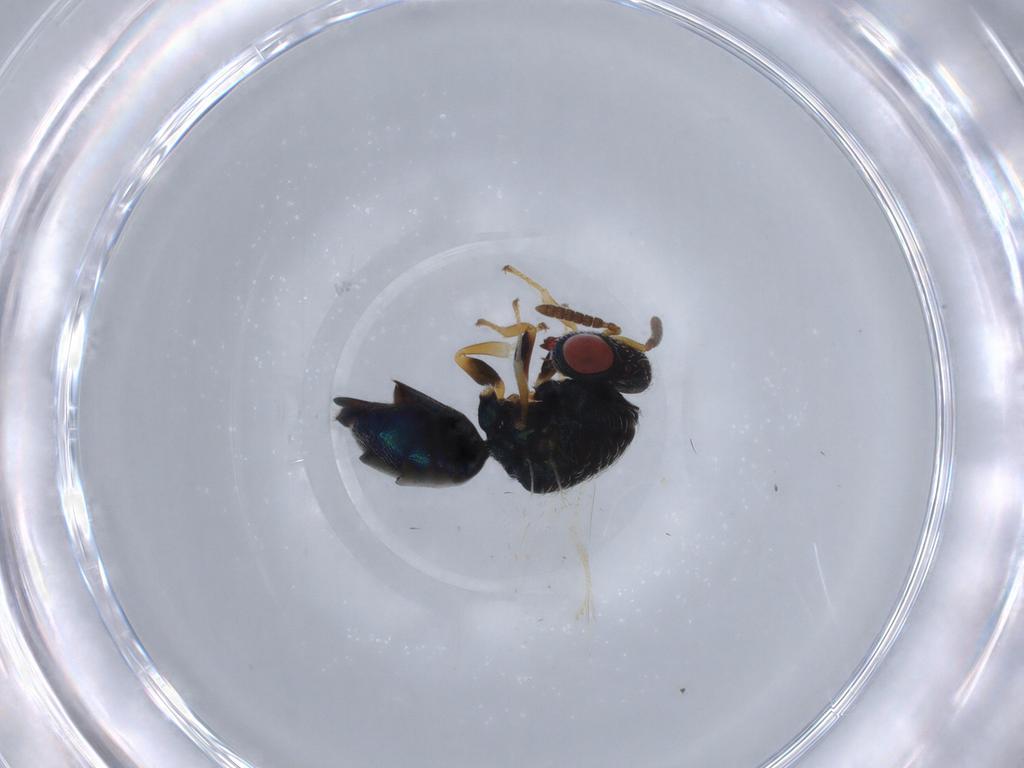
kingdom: Animalia
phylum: Arthropoda
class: Insecta
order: Hymenoptera
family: Pteromalidae
